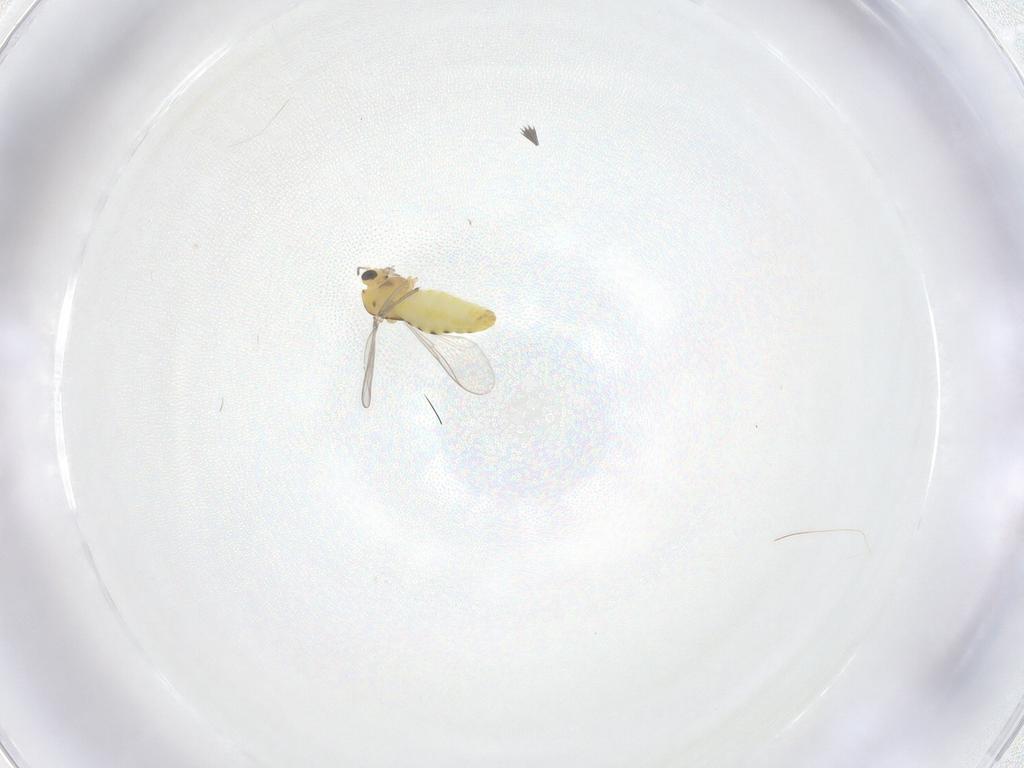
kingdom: Animalia
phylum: Arthropoda
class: Insecta
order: Diptera
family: Chironomidae
